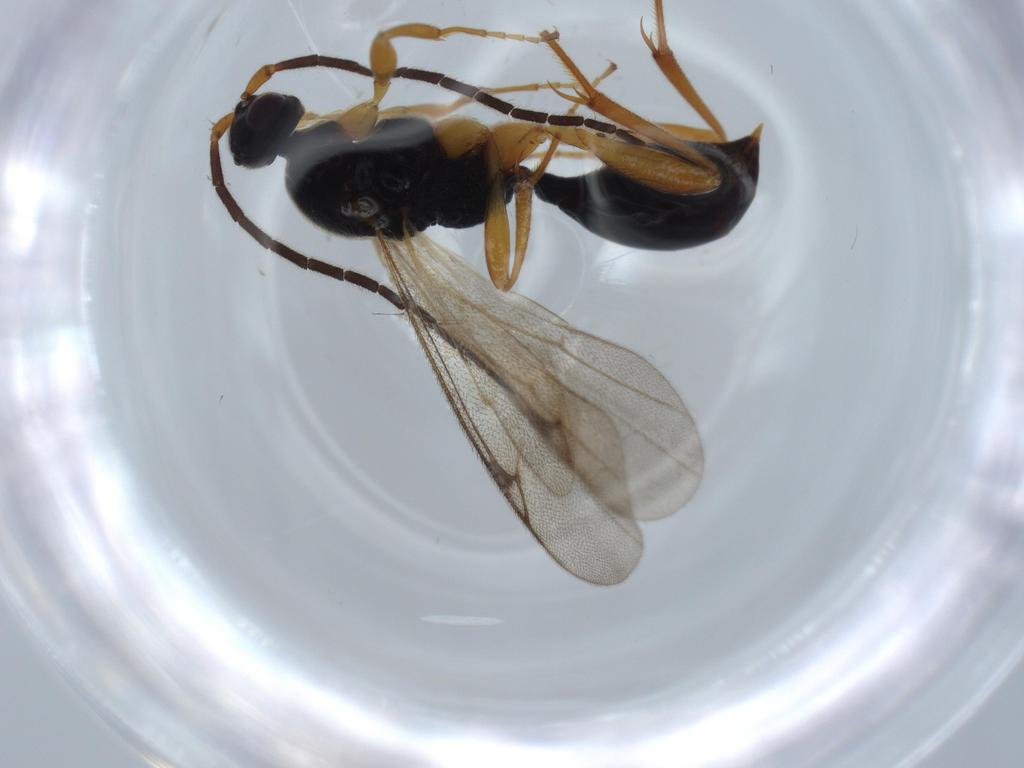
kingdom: Animalia
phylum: Arthropoda
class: Insecta
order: Hymenoptera
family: Proctotrupidae
